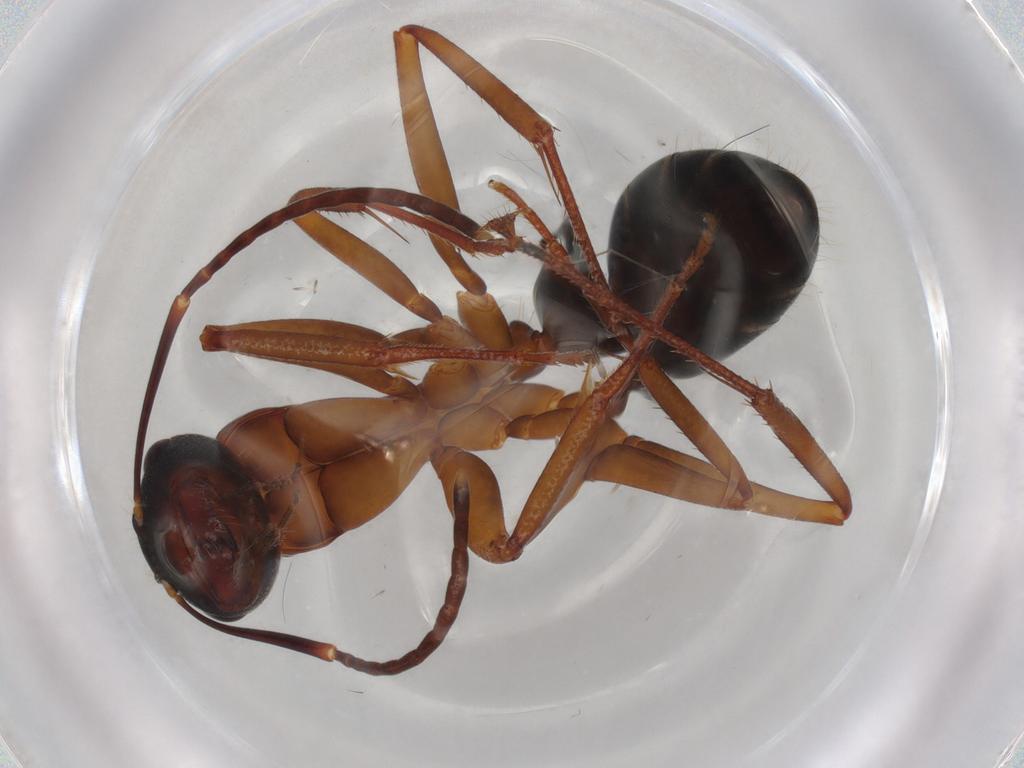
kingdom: Animalia
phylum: Arthropoda
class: Insecta
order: Hymenoptera
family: Formicidae
